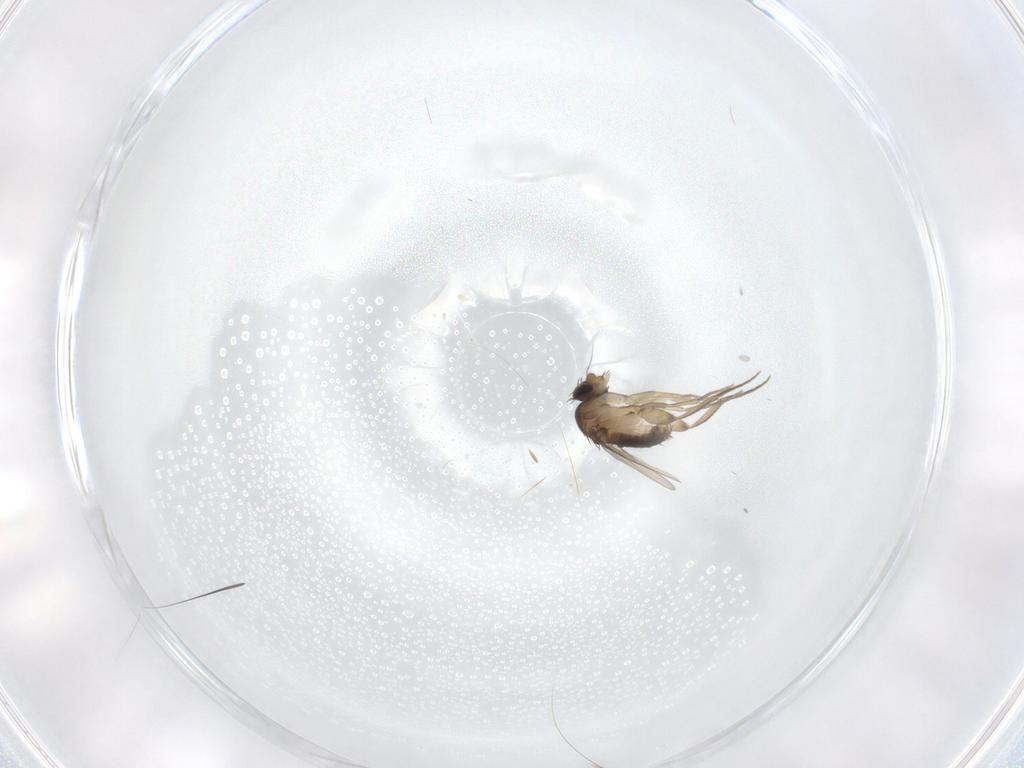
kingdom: Animalia
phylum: Arthropoda
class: Insecta
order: Diptera
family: Phoridae
